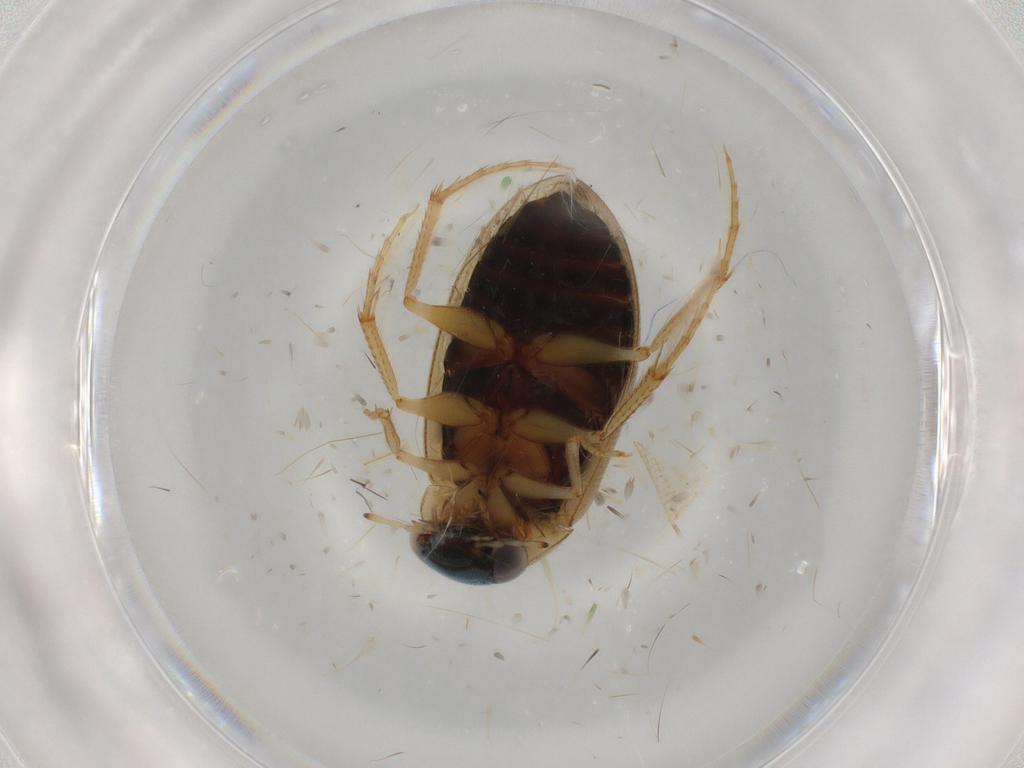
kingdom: Animalia
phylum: Arthropoda
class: Insecta
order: Coleoptera
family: Hydrophilidae
